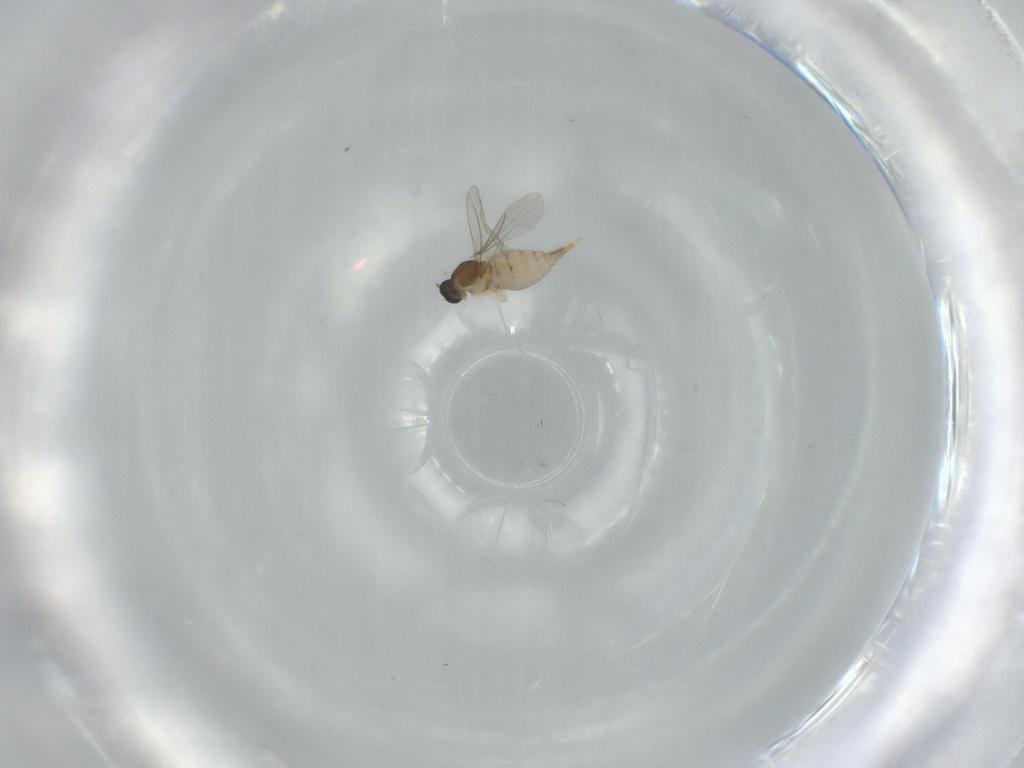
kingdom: Animalia
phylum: Arthropoda
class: Insecta
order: Diptera
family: Cecidomyiidae
